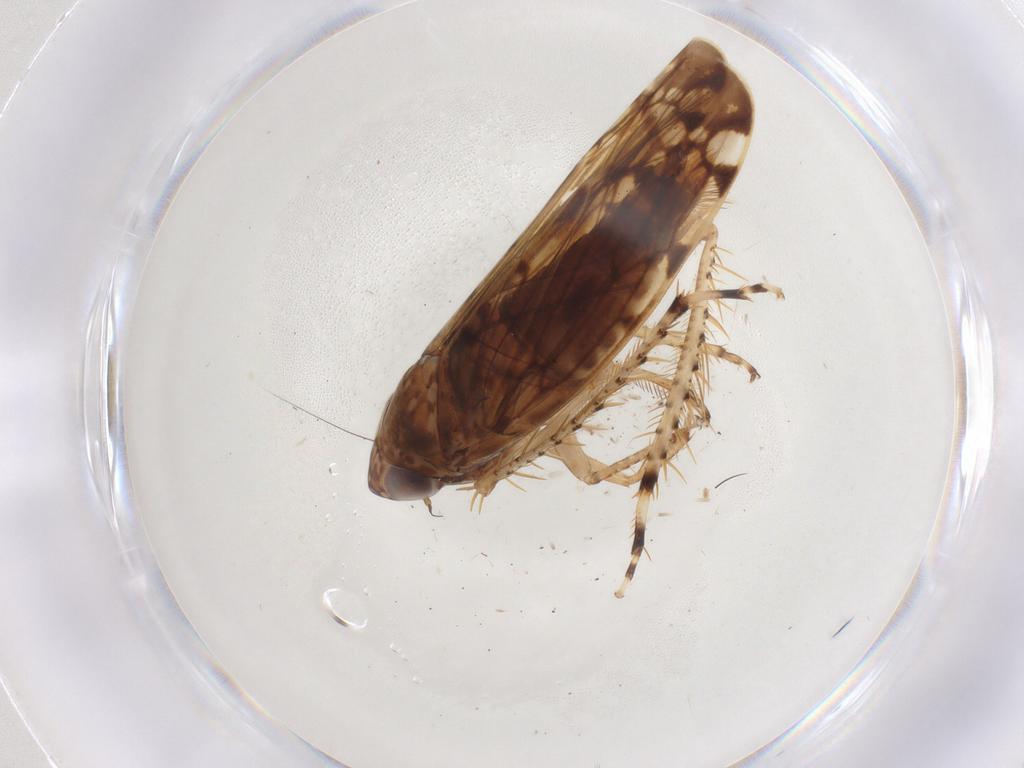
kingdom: Animalia
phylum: Arthropoda
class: Insecta
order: Hemiptera
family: Cicadellidae
